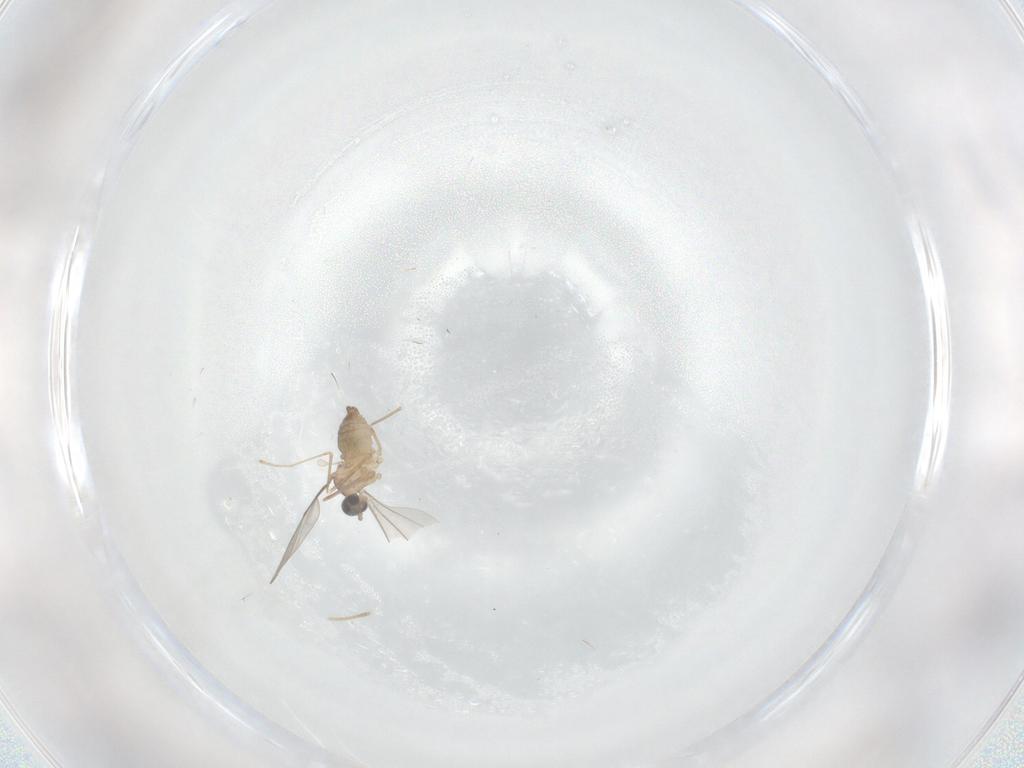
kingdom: Animalia
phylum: Arthropoda
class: Insecta
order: Diptera
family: Cecidomyiidae
